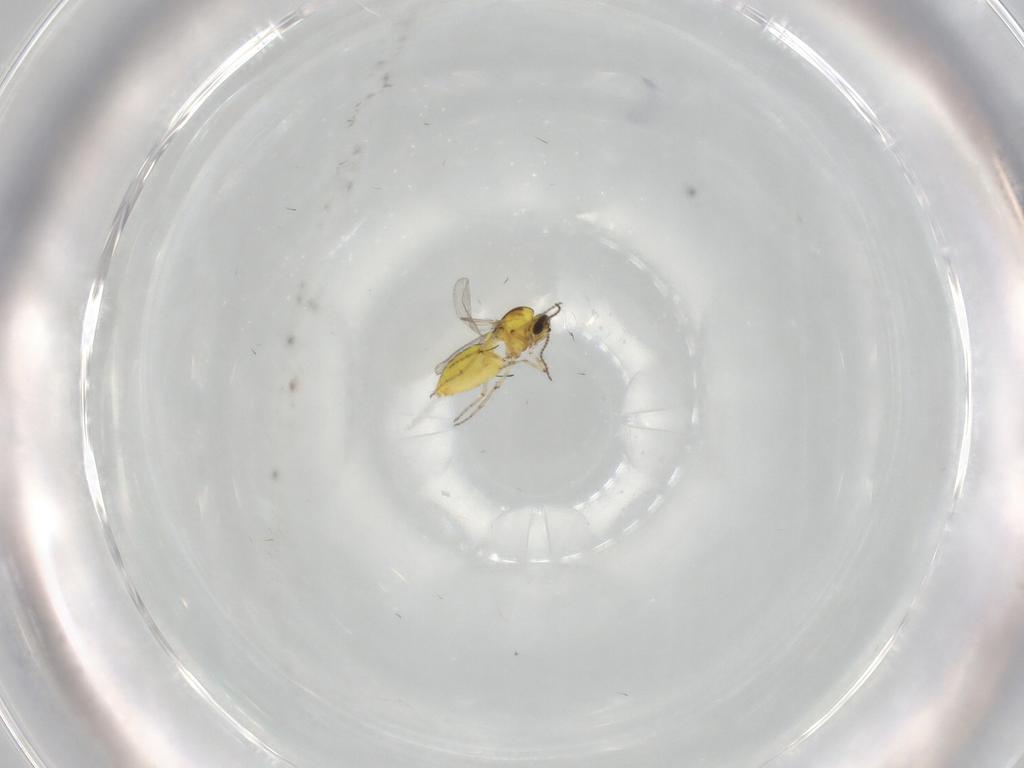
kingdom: Animalia
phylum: Arthropoda
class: Insecta
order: Diptera
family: Ceratopogonidae
